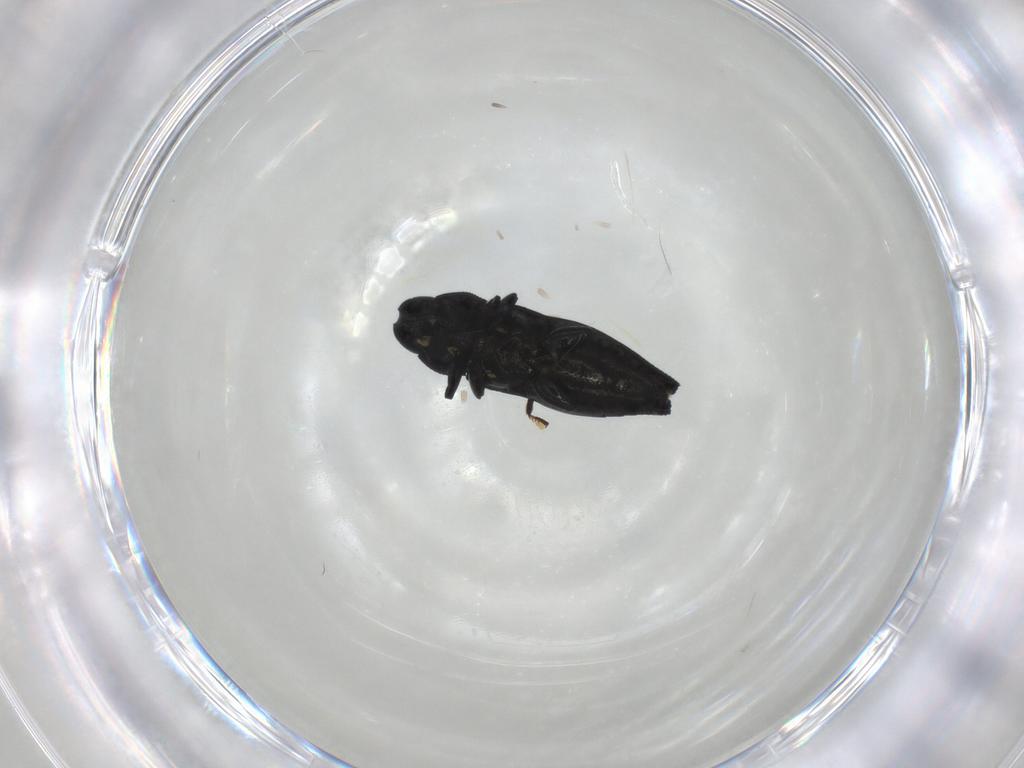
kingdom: Animalia
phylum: Arthropoda
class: Insecta
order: Coleoptera
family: Buprestidae
